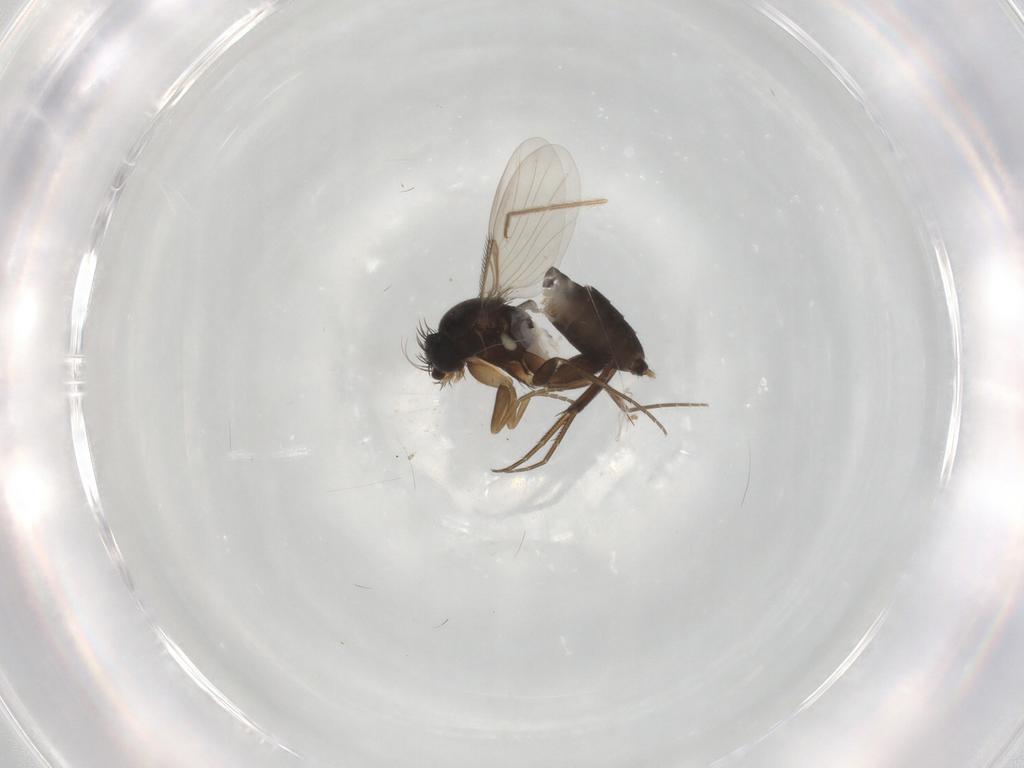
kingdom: Animalia
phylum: Arthropoda
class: Insecta
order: Diptera
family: Phoridae
